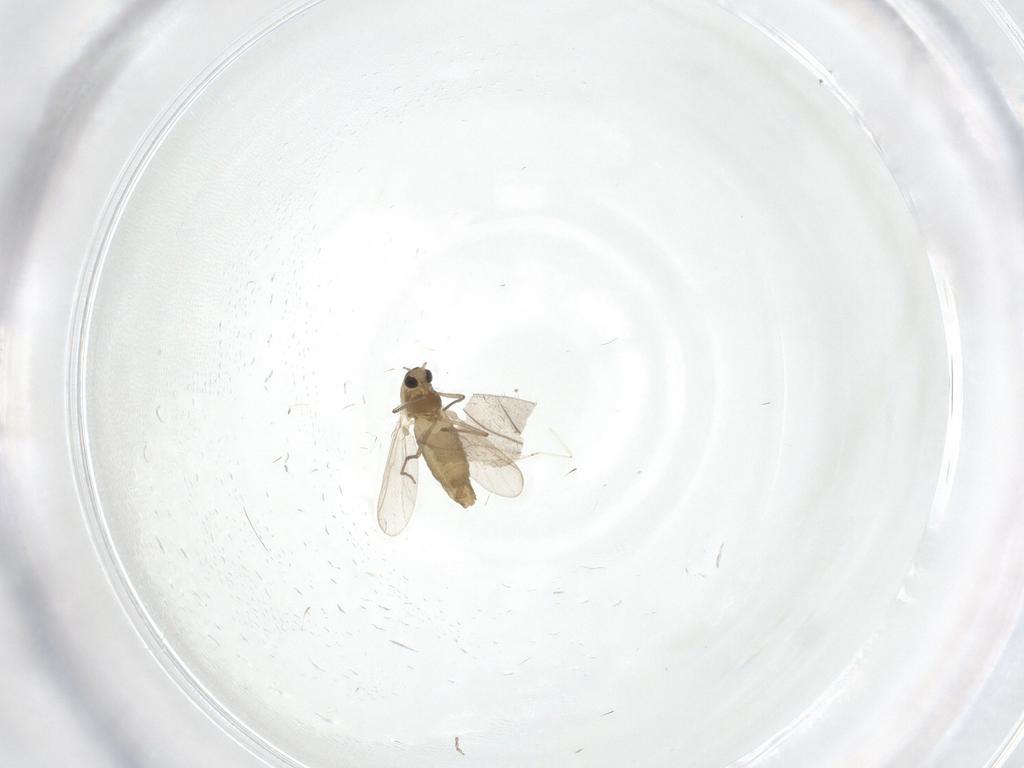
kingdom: Animalia
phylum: Arthropoda
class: Insecta
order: Diptera
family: Chironomidae
